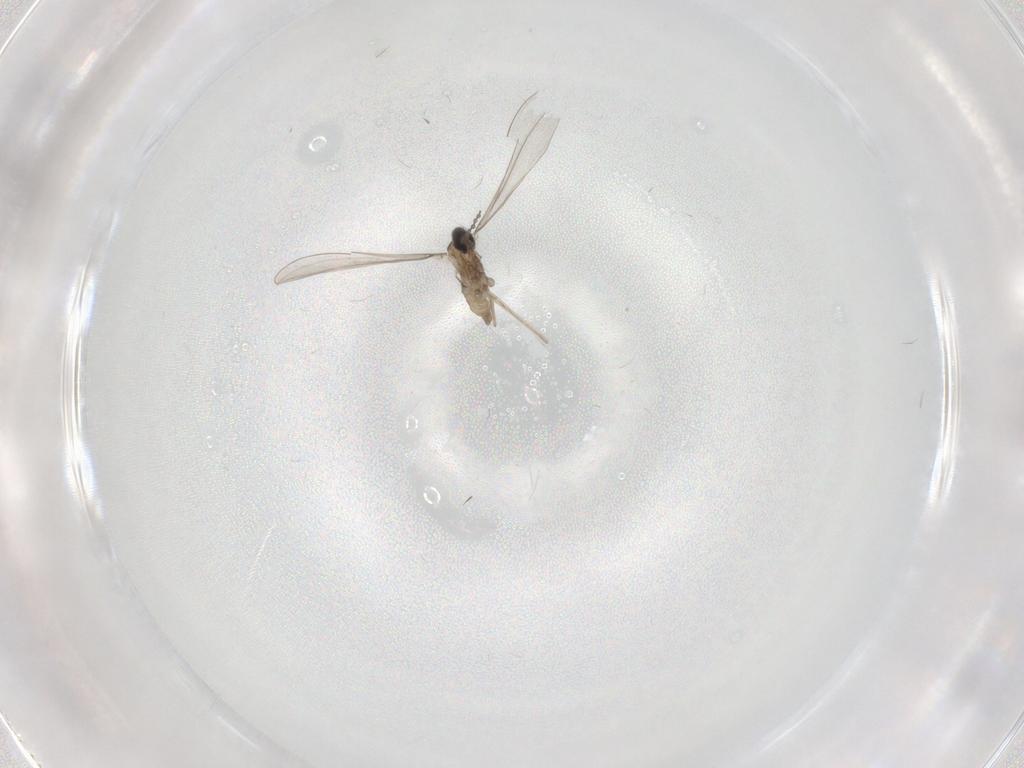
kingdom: Animalia
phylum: Arthropoda
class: Insecta
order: Diptera
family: Cecidomyiidae
